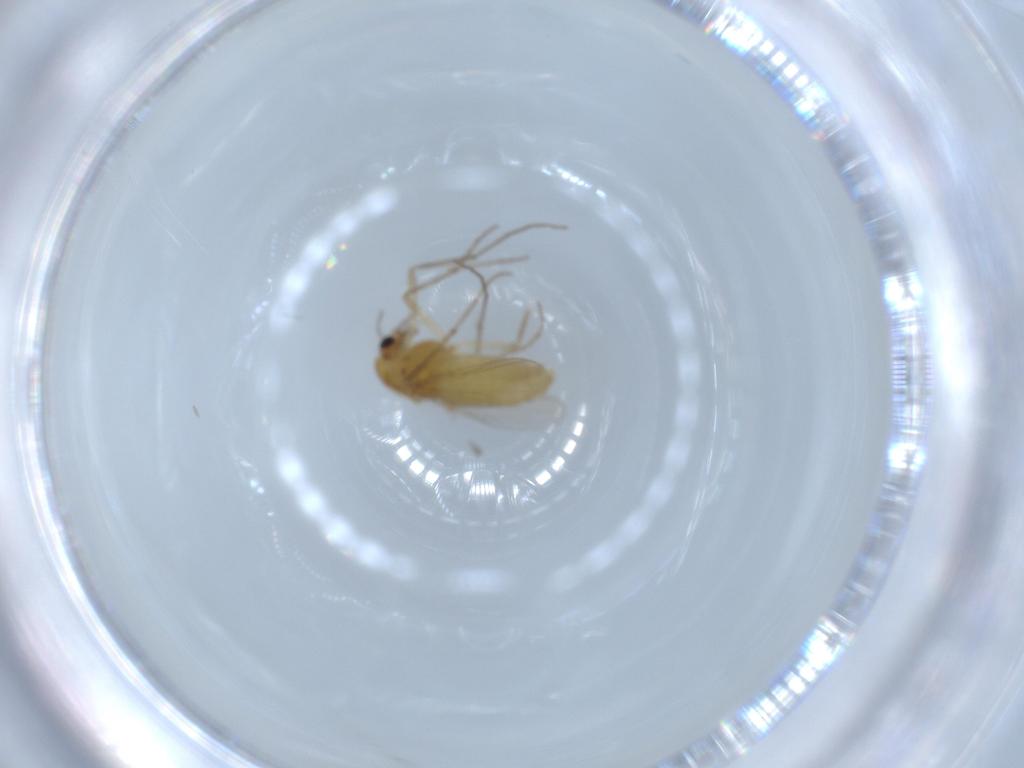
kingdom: Animalia
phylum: Arthropoda
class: Insecta
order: Diptera
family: Chironomidae
